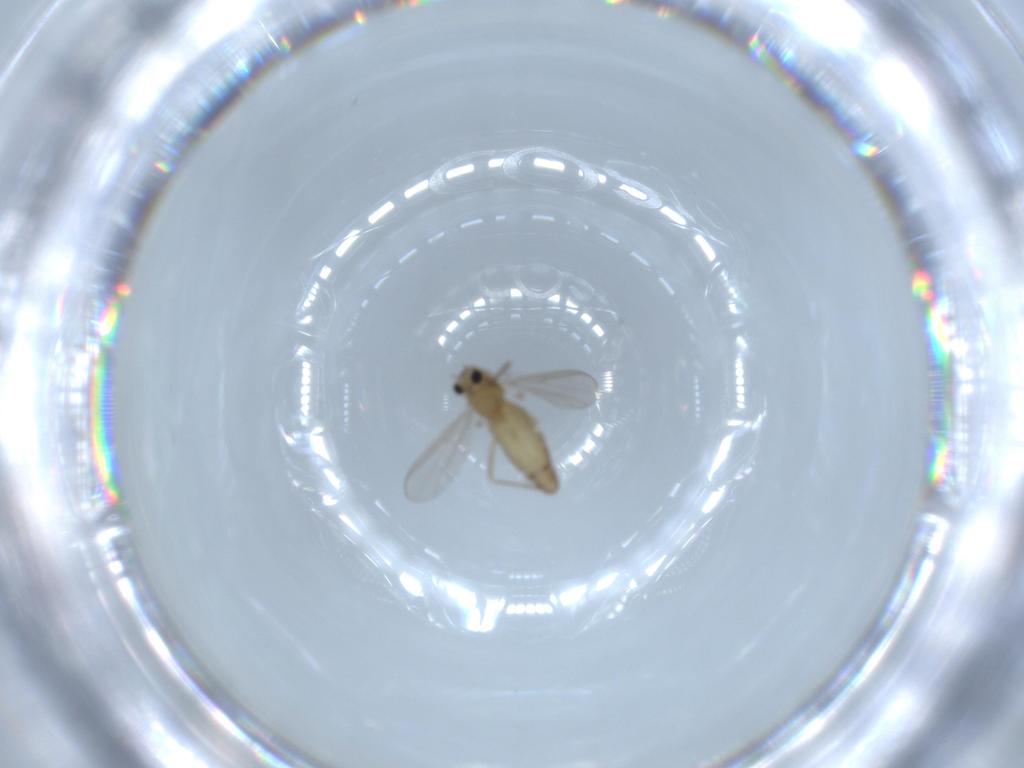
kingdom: Animalia
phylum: Arthropoda
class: Insecta
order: Diptera
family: Chironomidae
